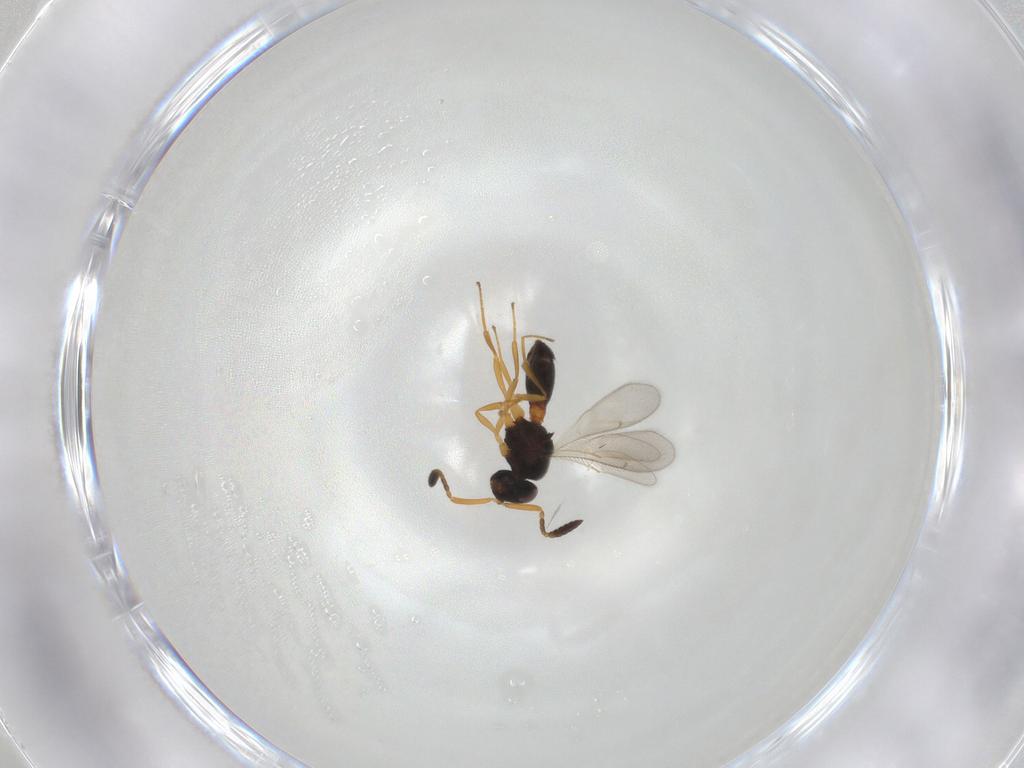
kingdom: Animalia
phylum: Arthropoda
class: Insecta
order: Hymenoptera
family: Scelionidae
